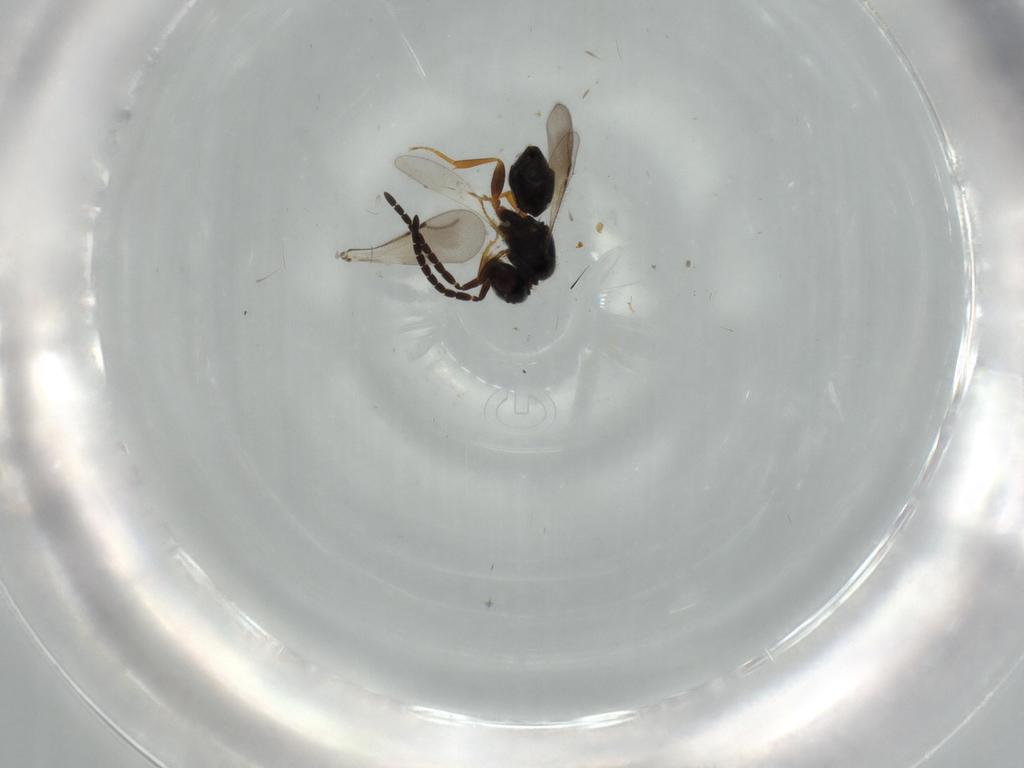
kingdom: Animalia
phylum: Arthropoda
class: Insecta
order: Hymenoptera
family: Ceraphronidae
